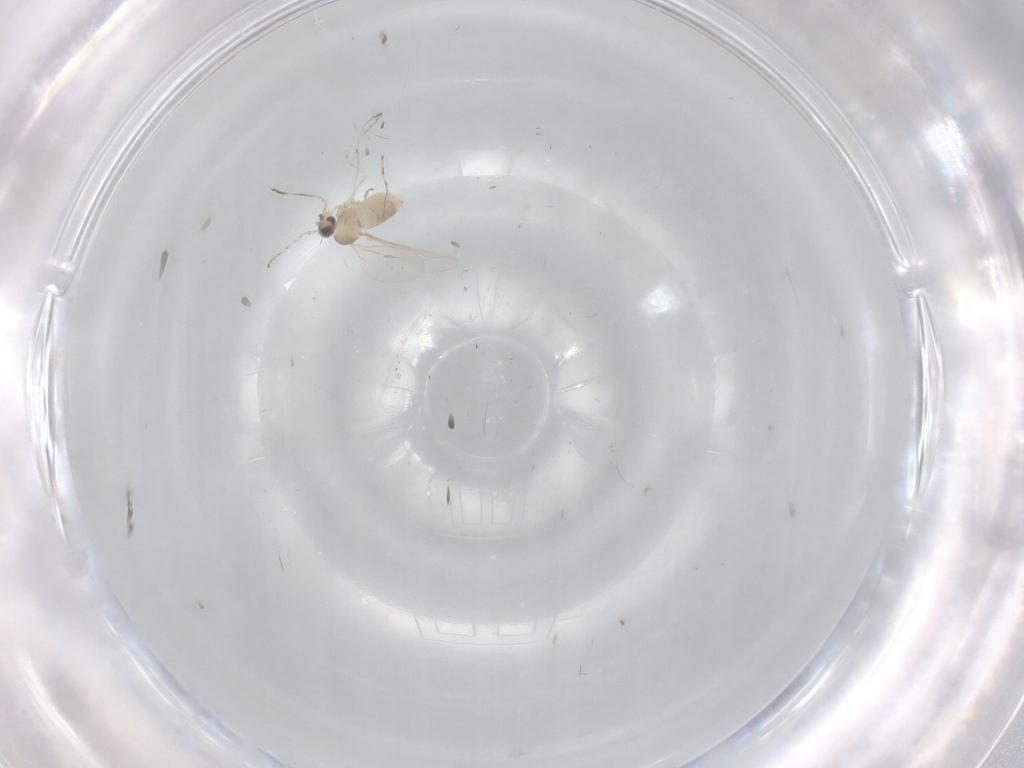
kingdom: Animalia
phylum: Arthropoda
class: Insecta
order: Diptera
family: Cecidomyiidae
